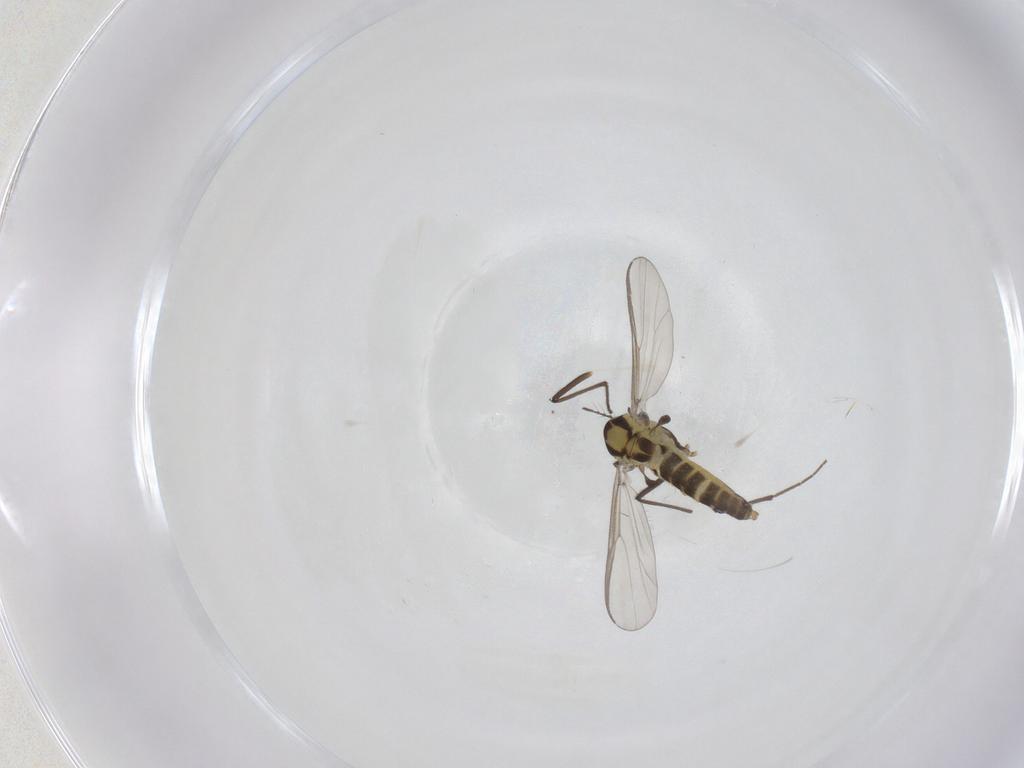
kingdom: Animalia
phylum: Arthropoda
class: Insecta
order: Diptera
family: Chironomidae
